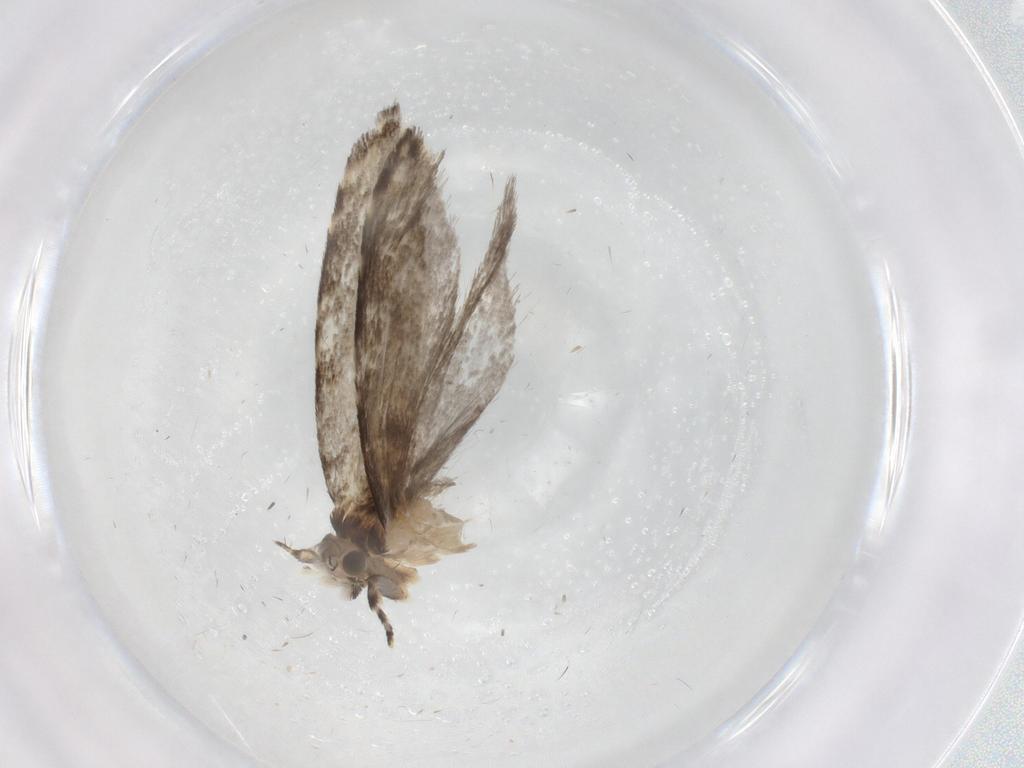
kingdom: Animalia
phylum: Arthropoda
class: Insecta
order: Lepidoptera
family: Tineidae
